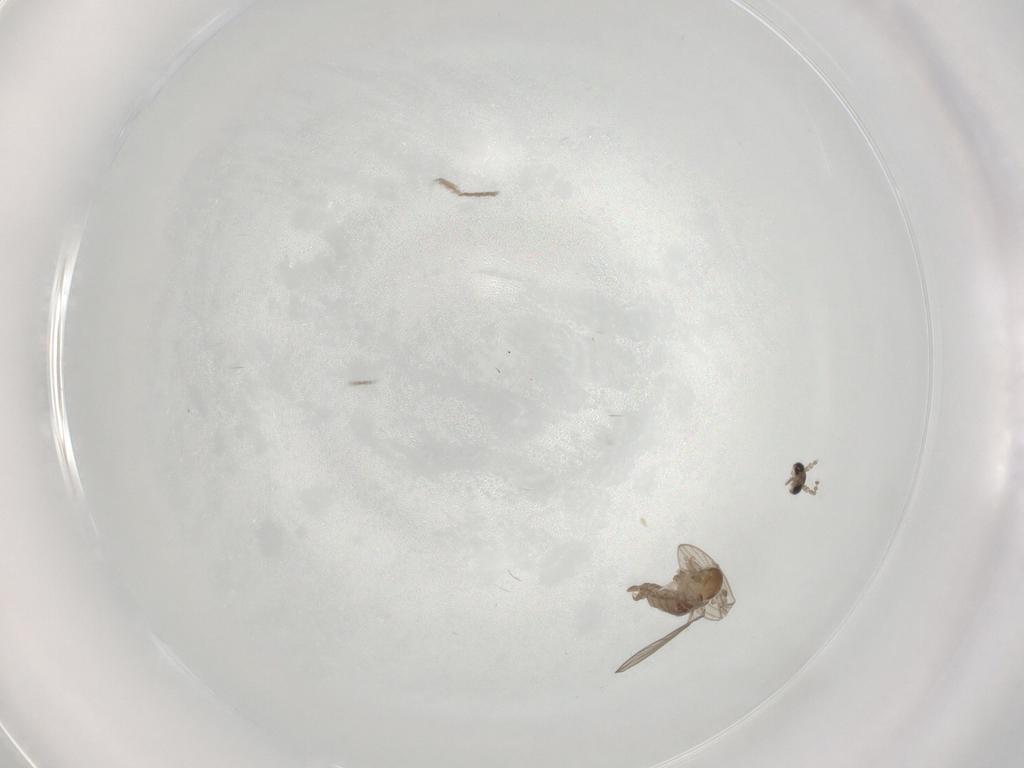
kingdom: Animalia
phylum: Arthropoda
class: Insecta
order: Diptera
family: Psychodidae
